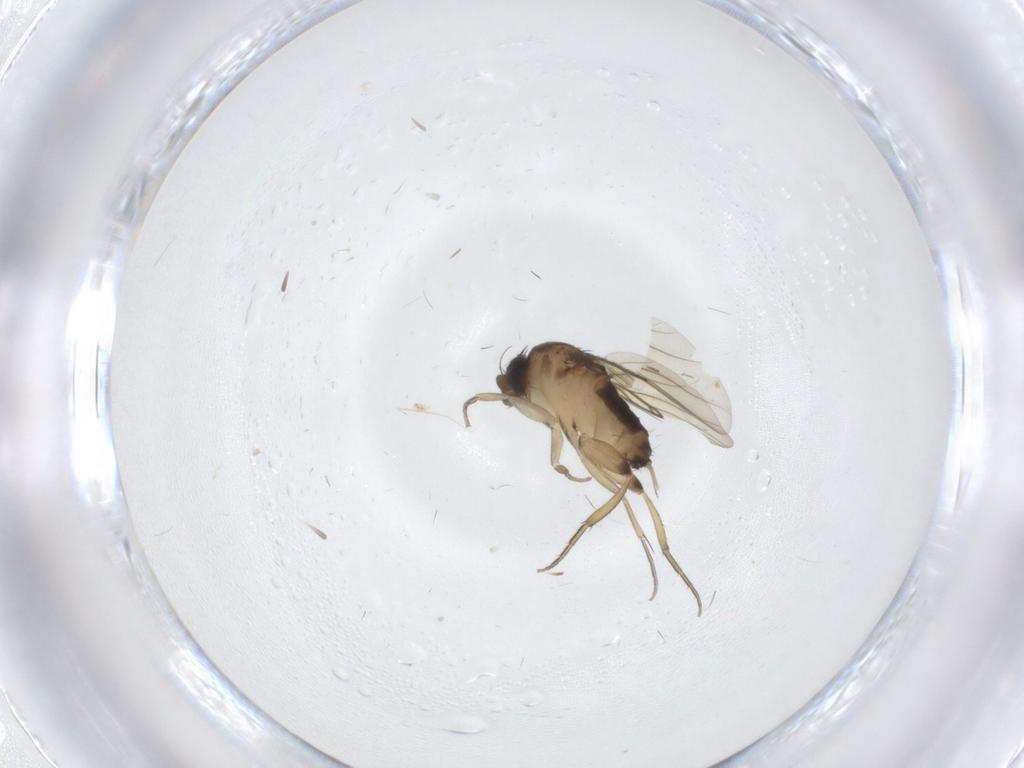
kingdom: Animalia
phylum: Arthropoda
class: Insecta
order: Diptera
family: Phoridae
